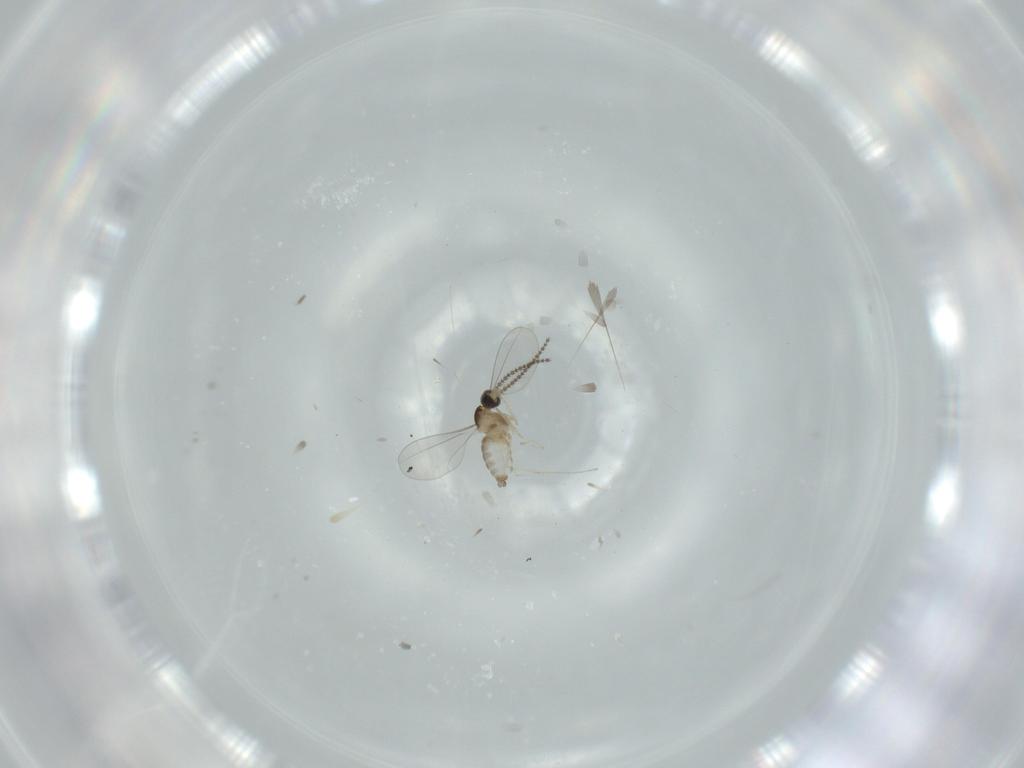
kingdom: Animalia
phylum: Arthropoda
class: Insecta
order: Diptera
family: Cecidomyiidae
